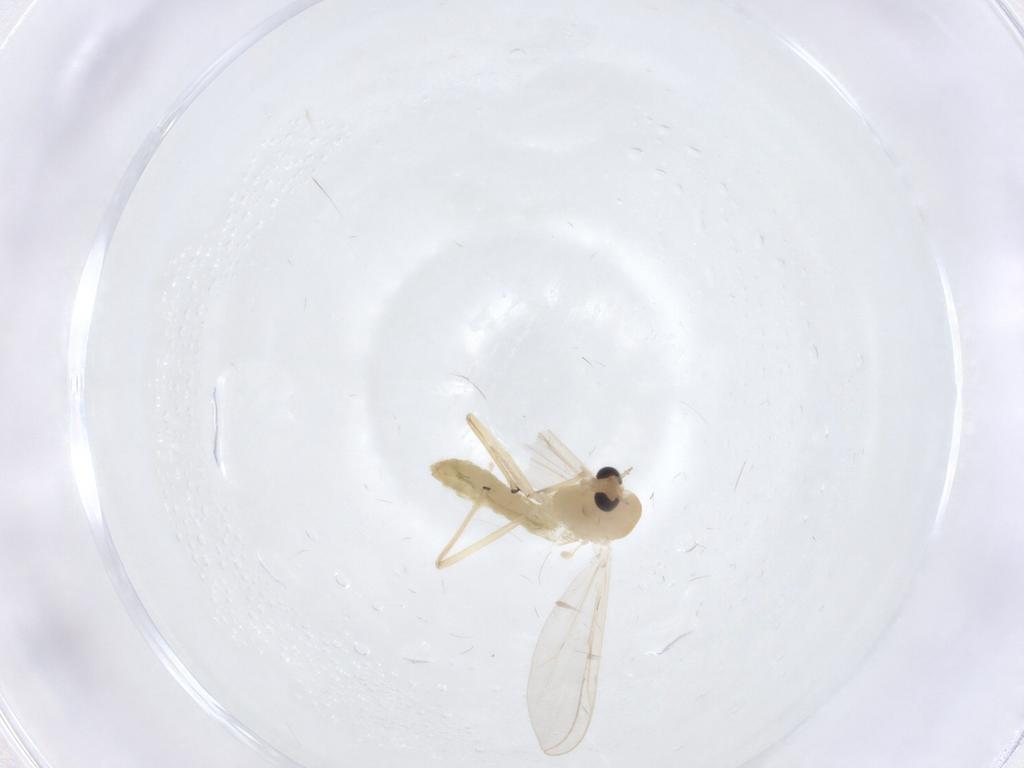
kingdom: Animalia
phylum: Arthropoda
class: Insecta
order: Diptera
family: Chironomidae
